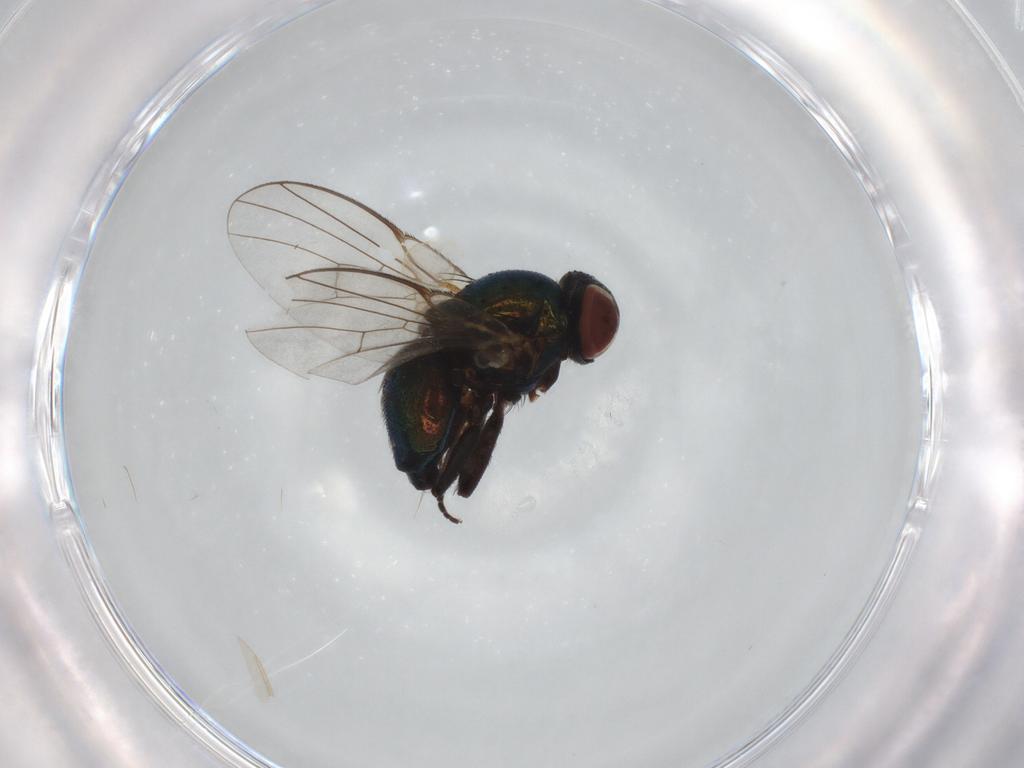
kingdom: Animalia
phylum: Arthropoda
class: Insecta
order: Diptera
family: Agromyzidae
